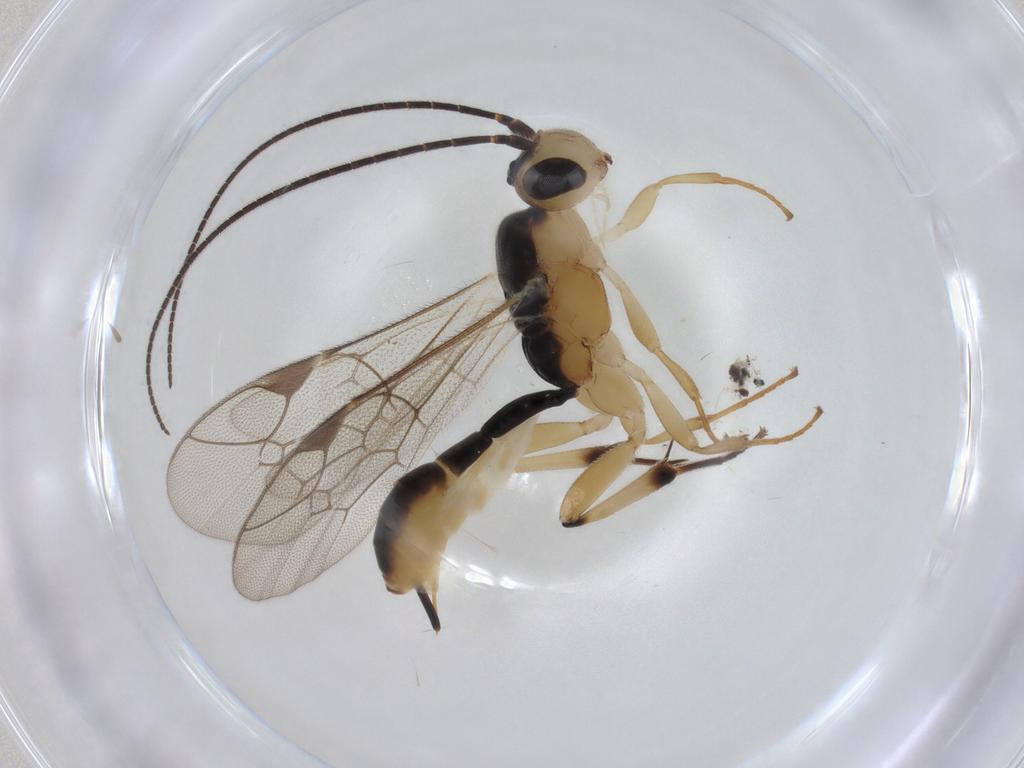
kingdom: Animalia
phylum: Arthropoda
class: Insecta
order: Hymenoptera
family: Ichneumonidae
